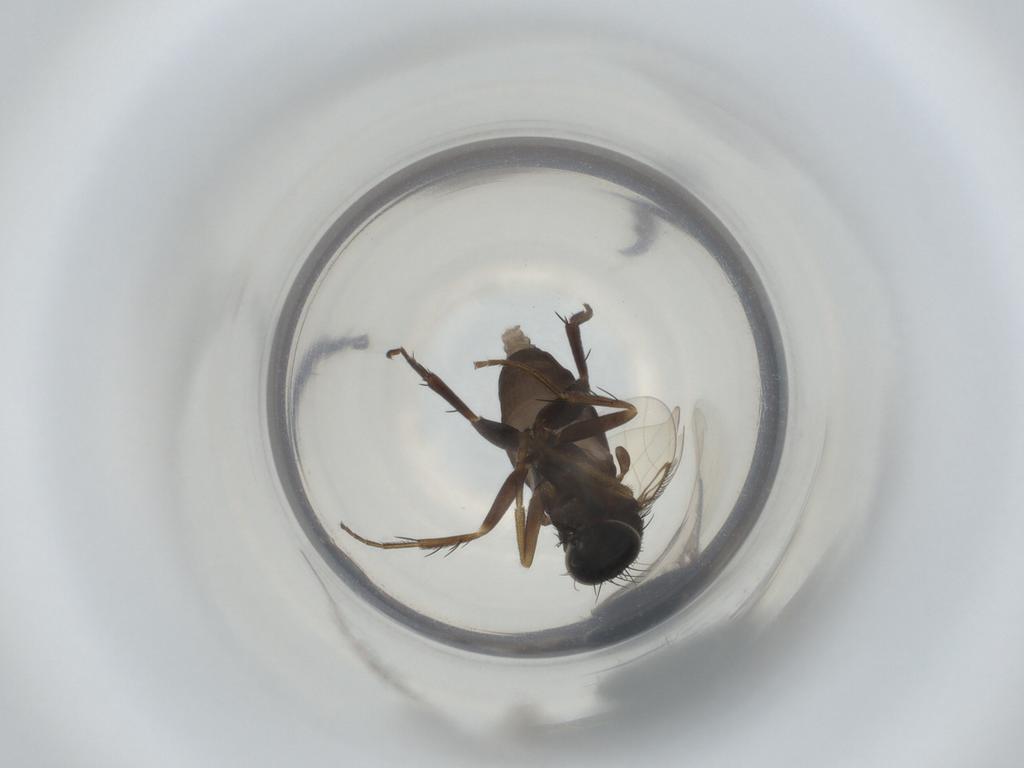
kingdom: Animalia
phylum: Arthropoda
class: Insecta
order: Diptera
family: Phoridae
